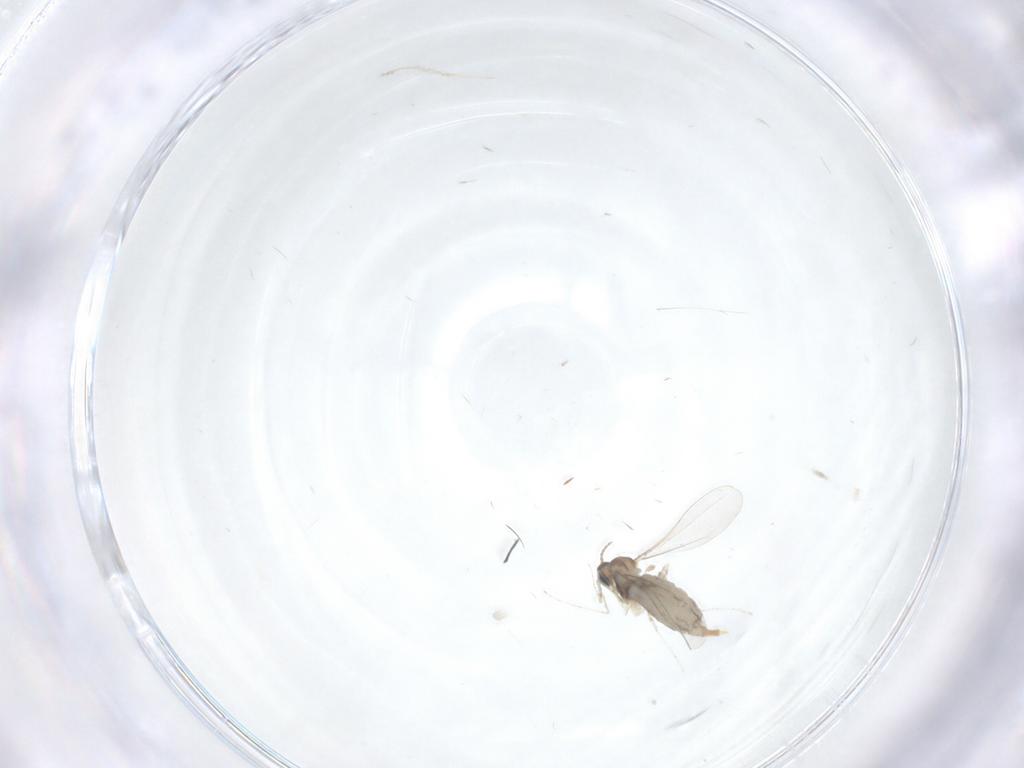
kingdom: Animalia
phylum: Arthropoda
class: Insecta
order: Diptera
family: Cecidomyiidae
